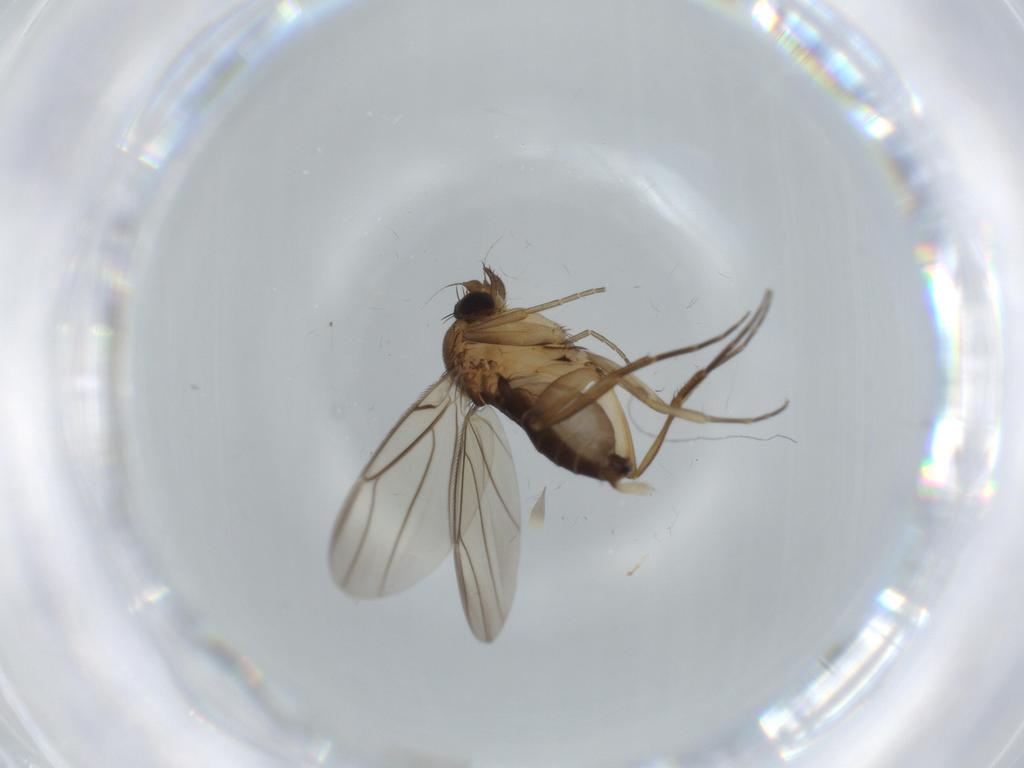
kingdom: Animalia
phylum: Arthropoda
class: Insecta
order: Diptera
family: Phoridae
